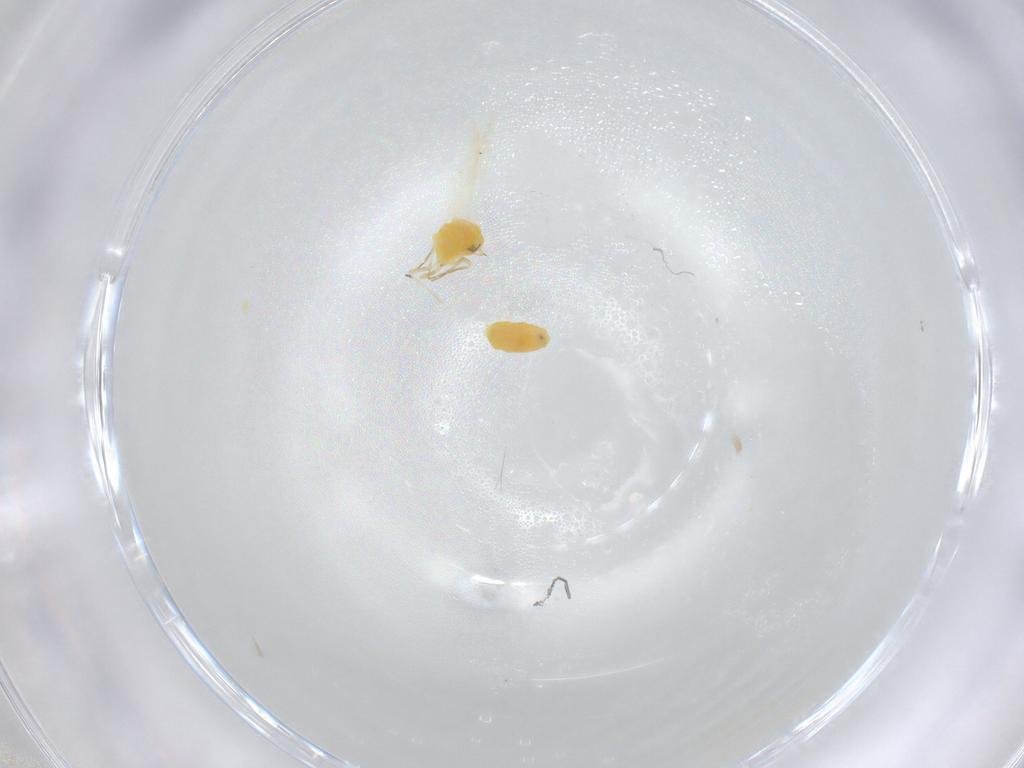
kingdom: Animalia
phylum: Arthropoda
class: Insecta
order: Hemiptera
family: Aleyrodidae
